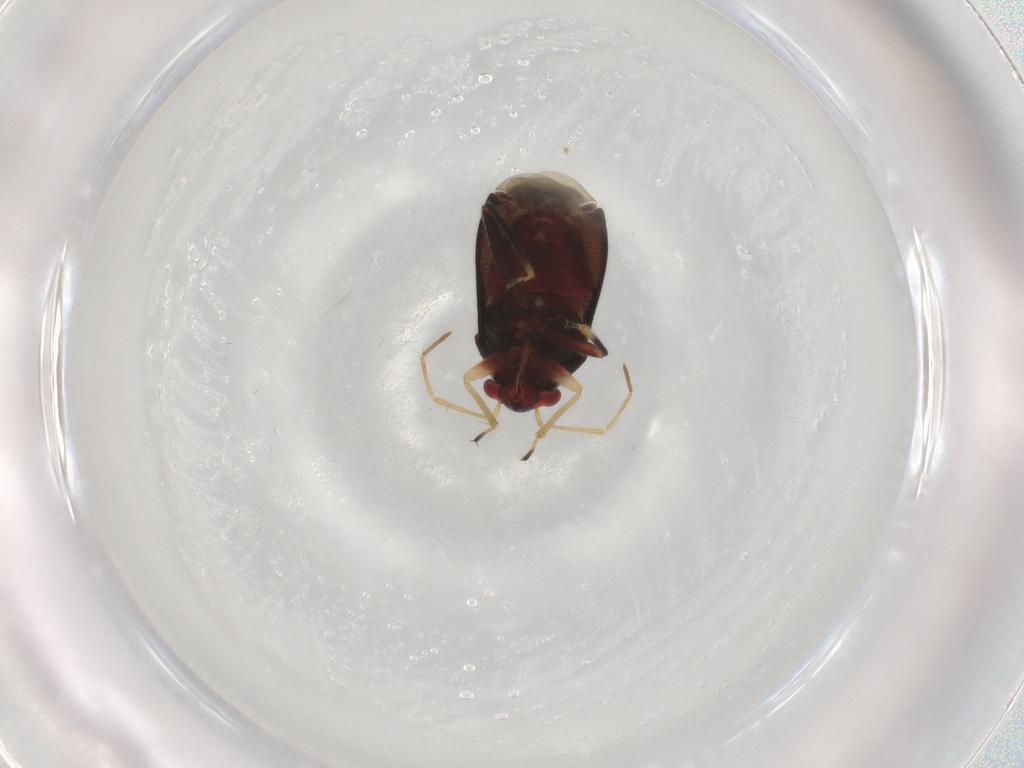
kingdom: Animalia
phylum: Arthropoda
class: Insecta
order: Hemiptera
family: Miridae
